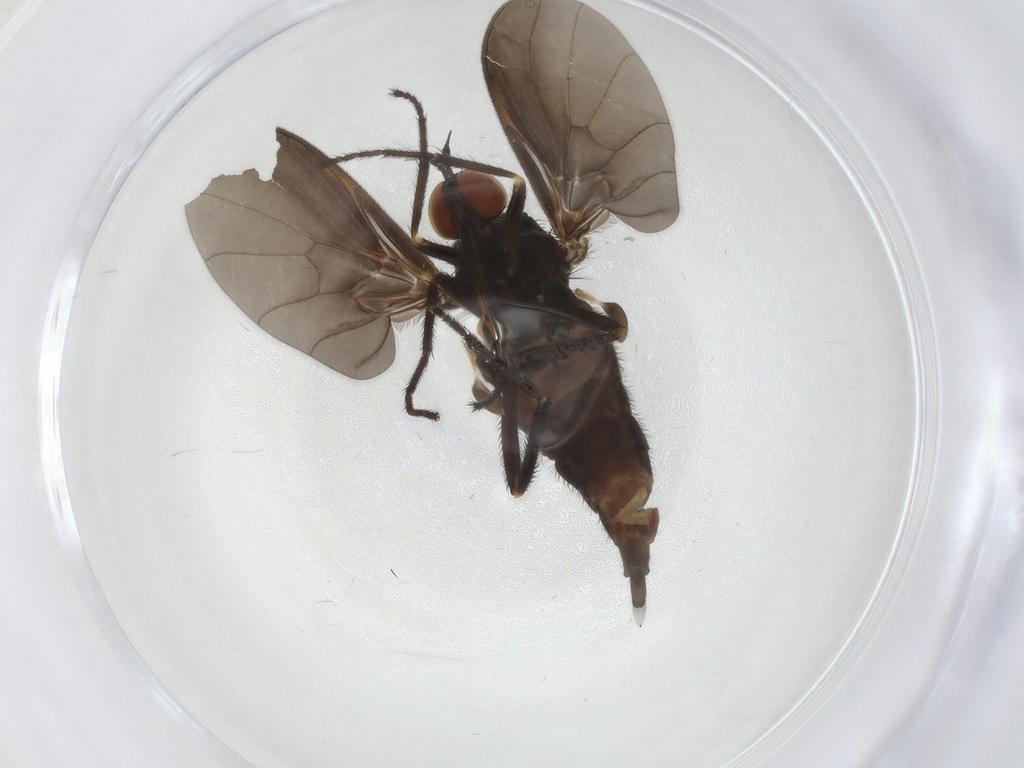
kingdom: Animalia
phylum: Arthropoda
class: Insecta
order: Diptera
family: Empididae
